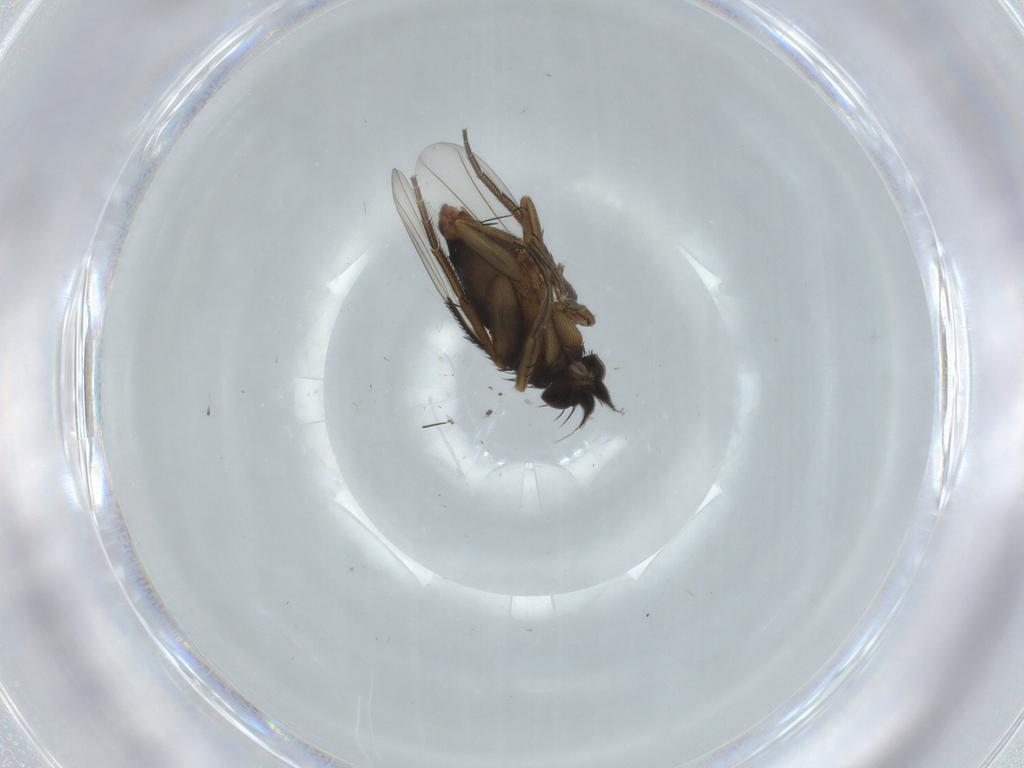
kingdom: Animalia
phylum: Arthropoda
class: Insecta
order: Diptera
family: Phoridae
